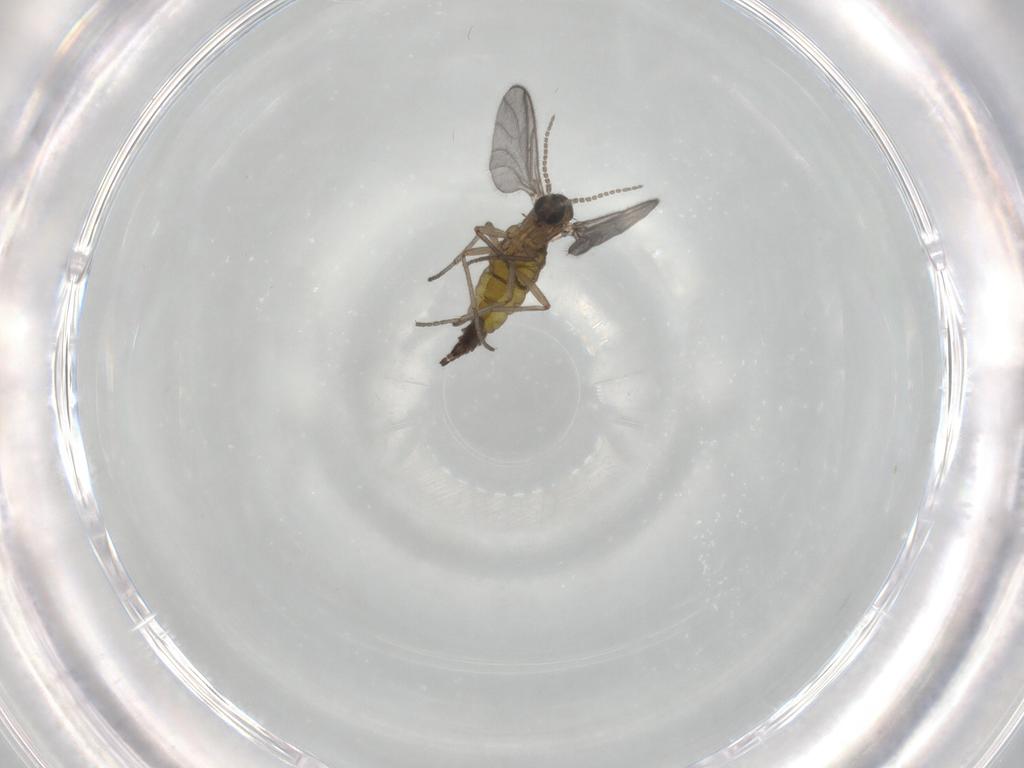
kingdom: Animalia
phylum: Arthropoda
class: Insecta
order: Diptera
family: Sciaridae
